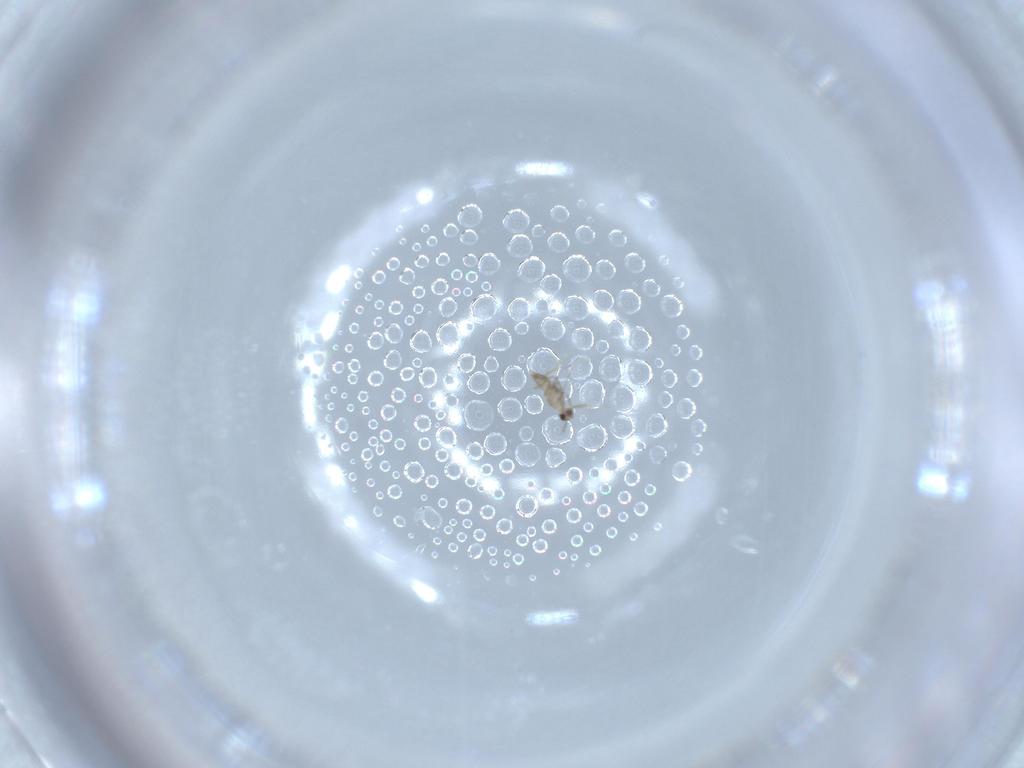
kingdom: Animalia
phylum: Arthropoda
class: Insecta
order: Hymenoptera
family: Mymaridae
